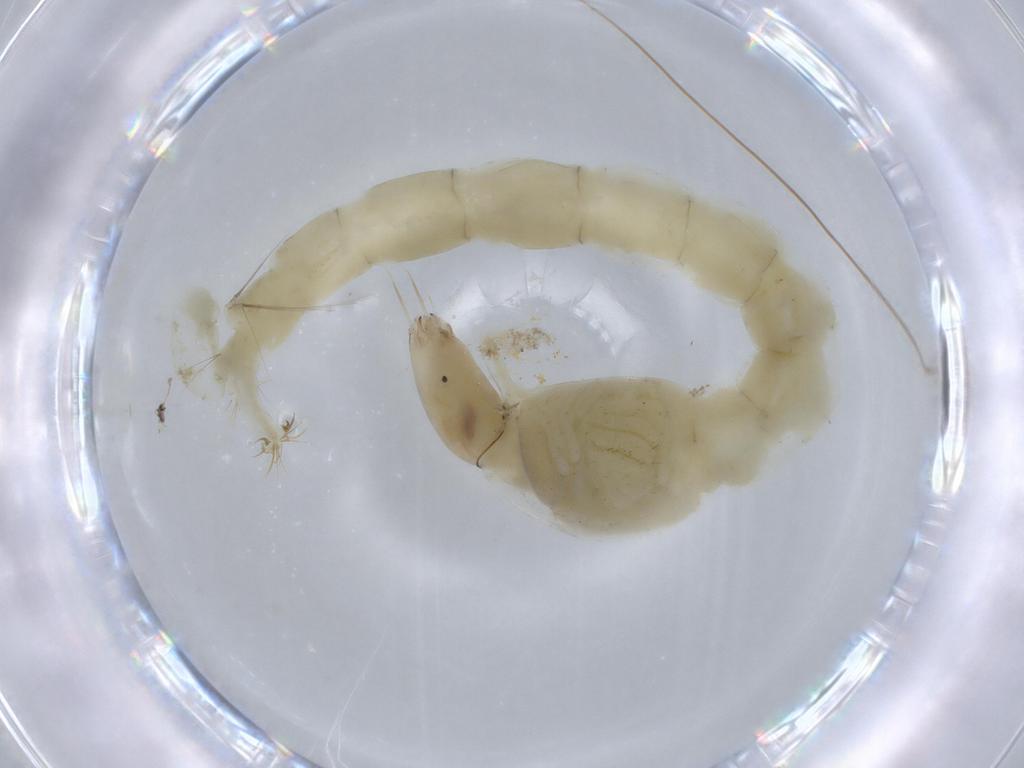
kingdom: Animalia
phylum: Arthropoda
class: Insecta
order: Diptera
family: Chironomidae
